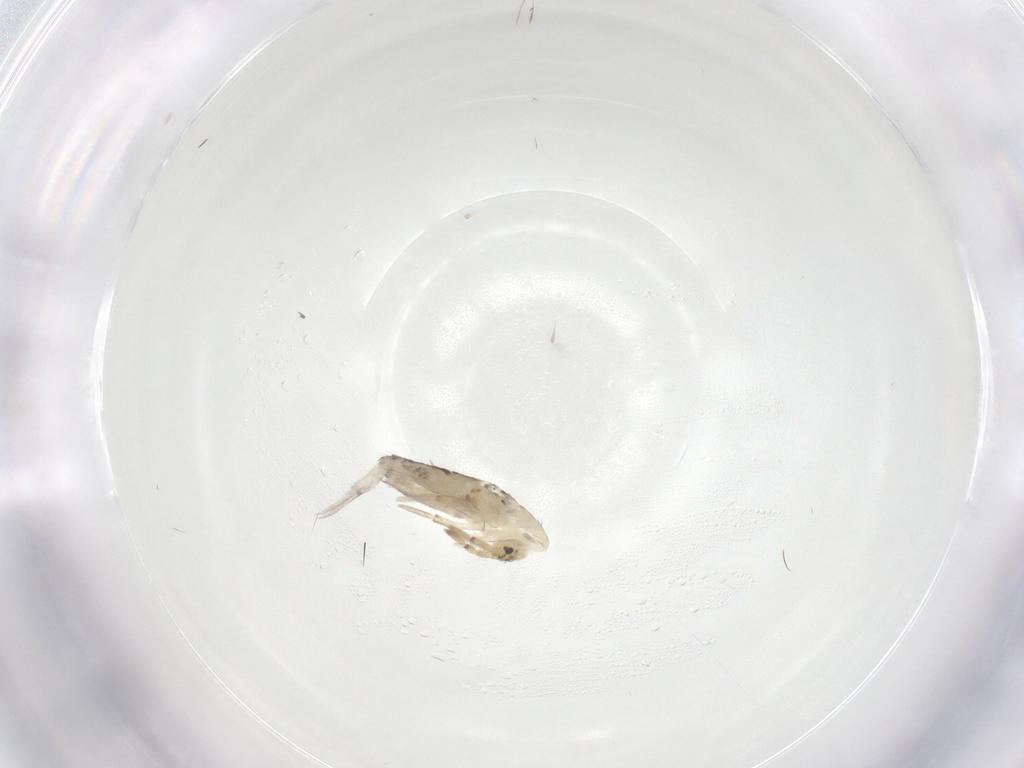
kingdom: Animalia
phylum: Arthropoda
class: Collembola
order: Entomobryomorpha
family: Entomobryidae
